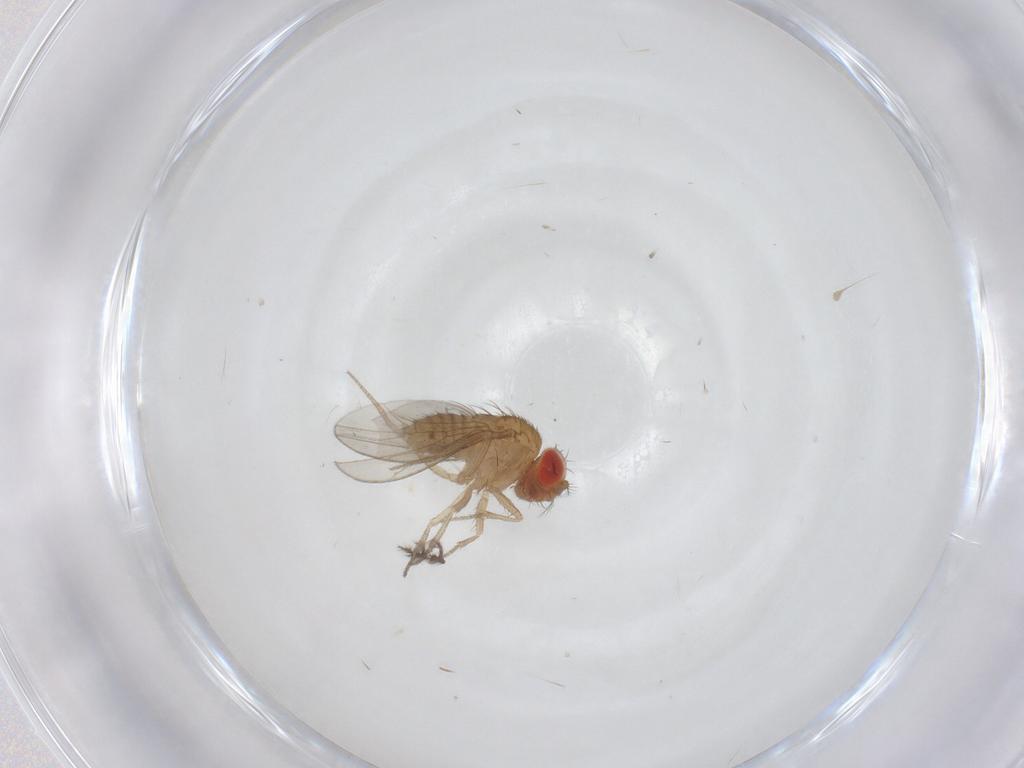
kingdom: Animalia
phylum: Arthropoda
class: Insecta
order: Diptera
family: Drosophilidae
